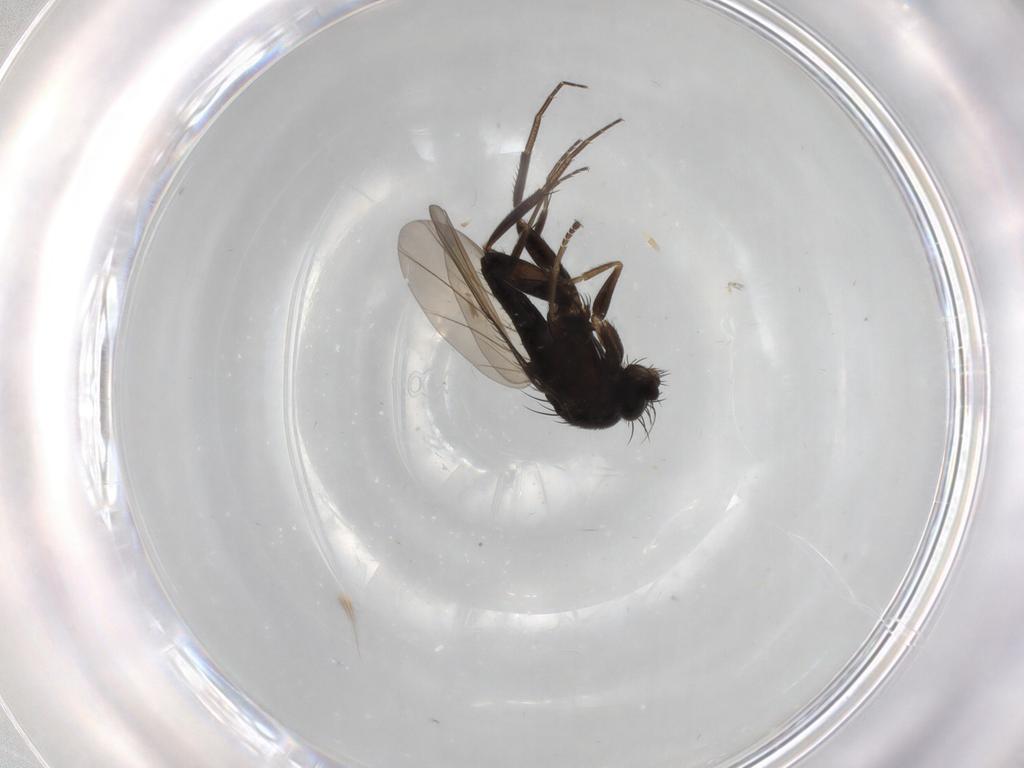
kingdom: Animalia
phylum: Arthropoda
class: Insecta
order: Diptera
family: Phoridae
